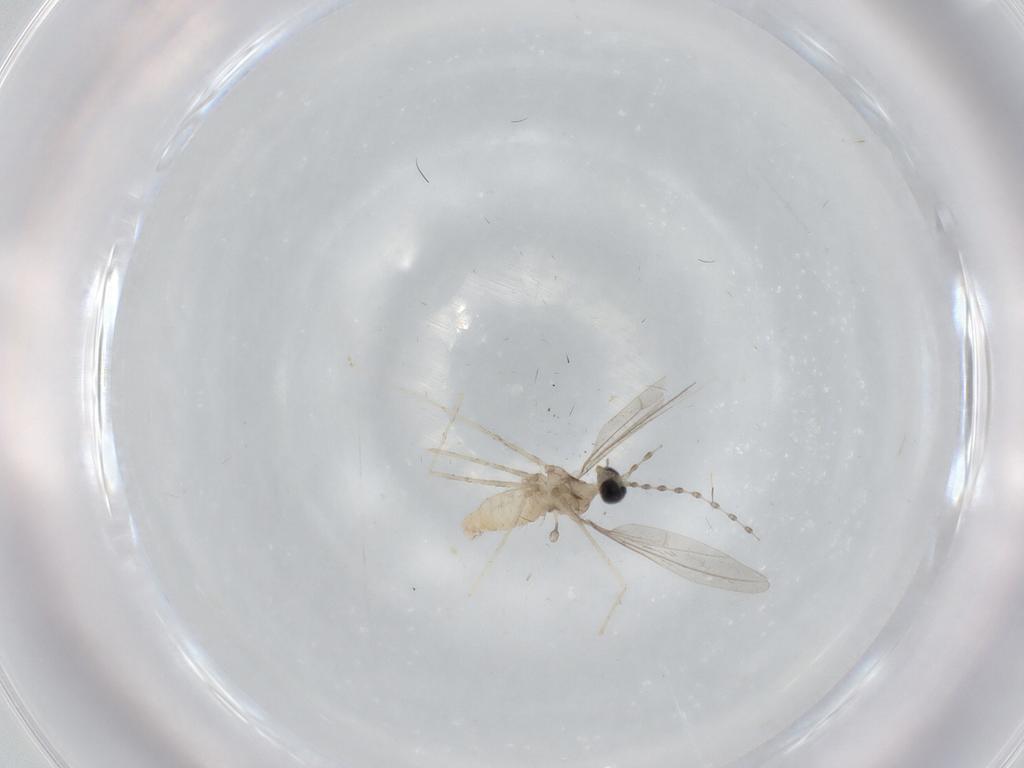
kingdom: Animalia
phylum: Arthropoda
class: Insecta
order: Diptera
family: Cecidomyiidae
